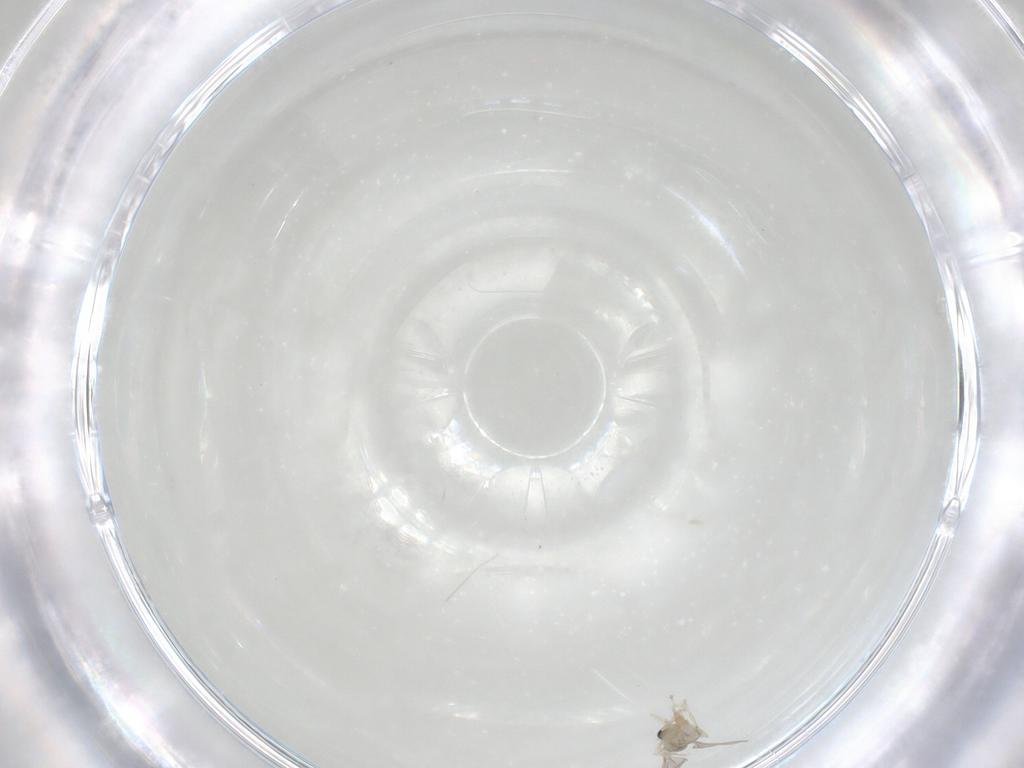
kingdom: Animalia
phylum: Arthropoda
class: Insecta
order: Diptera
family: Cecidomyiidae
